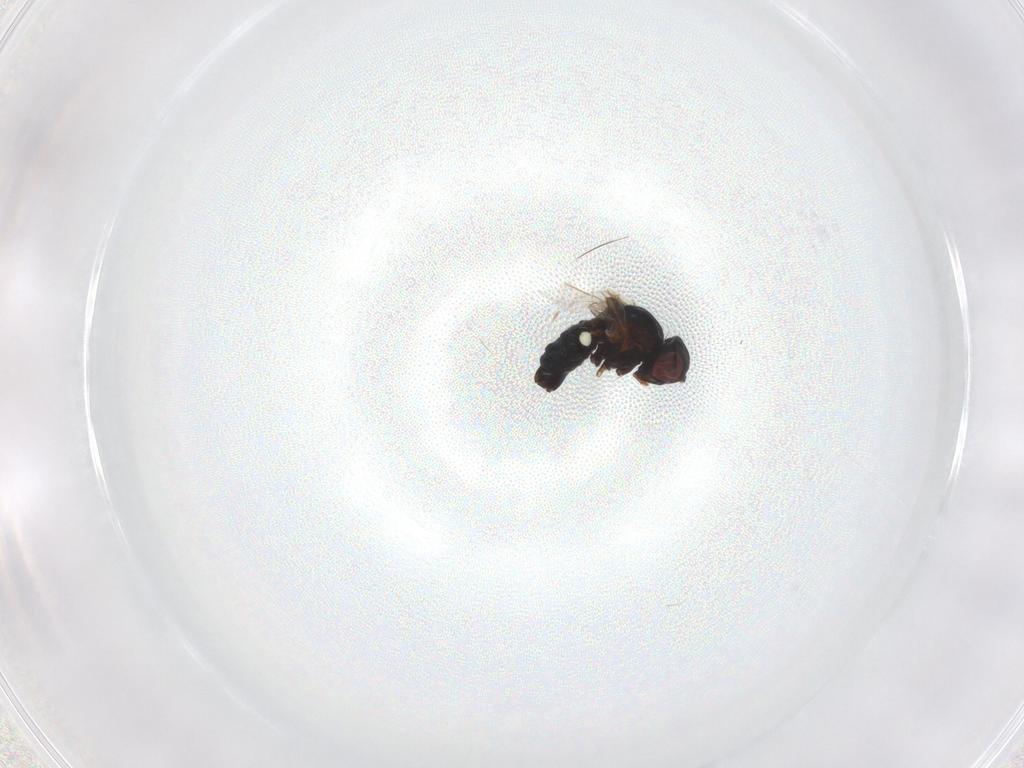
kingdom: Animalia
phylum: Arthropoda
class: Insecta
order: Diptera
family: Agromyzidae
